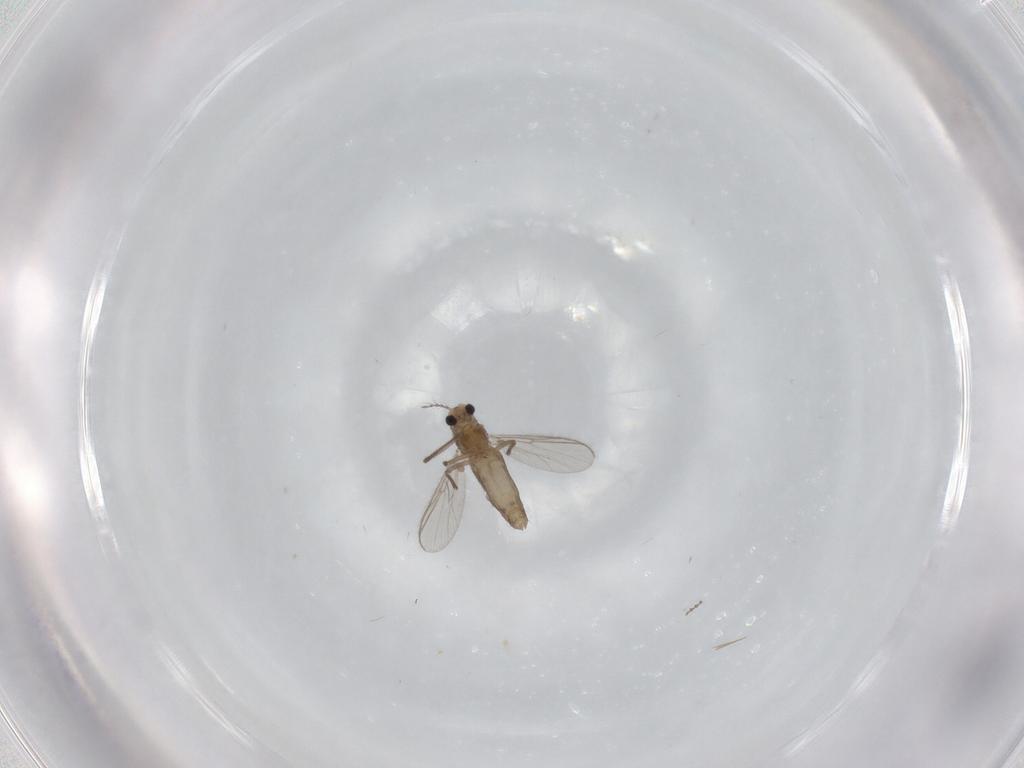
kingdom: Animalia
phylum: Arthropoda
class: Insecta
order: Diptera
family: Chironomidae
